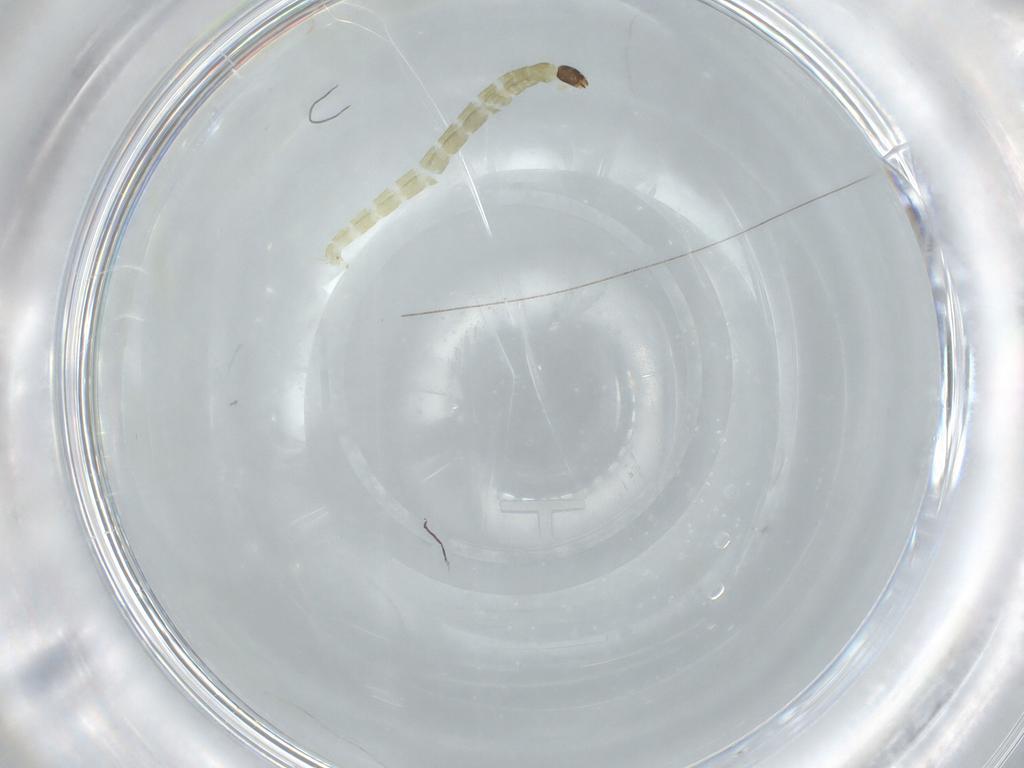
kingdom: Animalia
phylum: Arthropoda
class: Insecta
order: Diptera
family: Chironomidae
